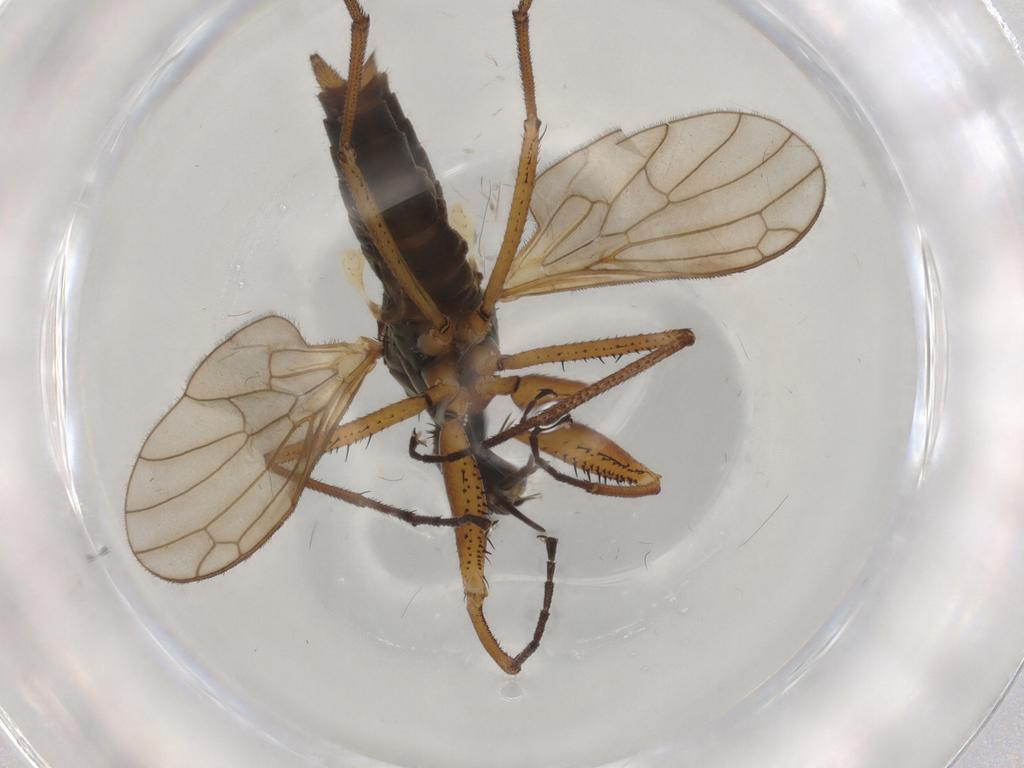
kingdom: Animalia
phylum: Arthropoda
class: Insecta
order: Diptera
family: Empididae
